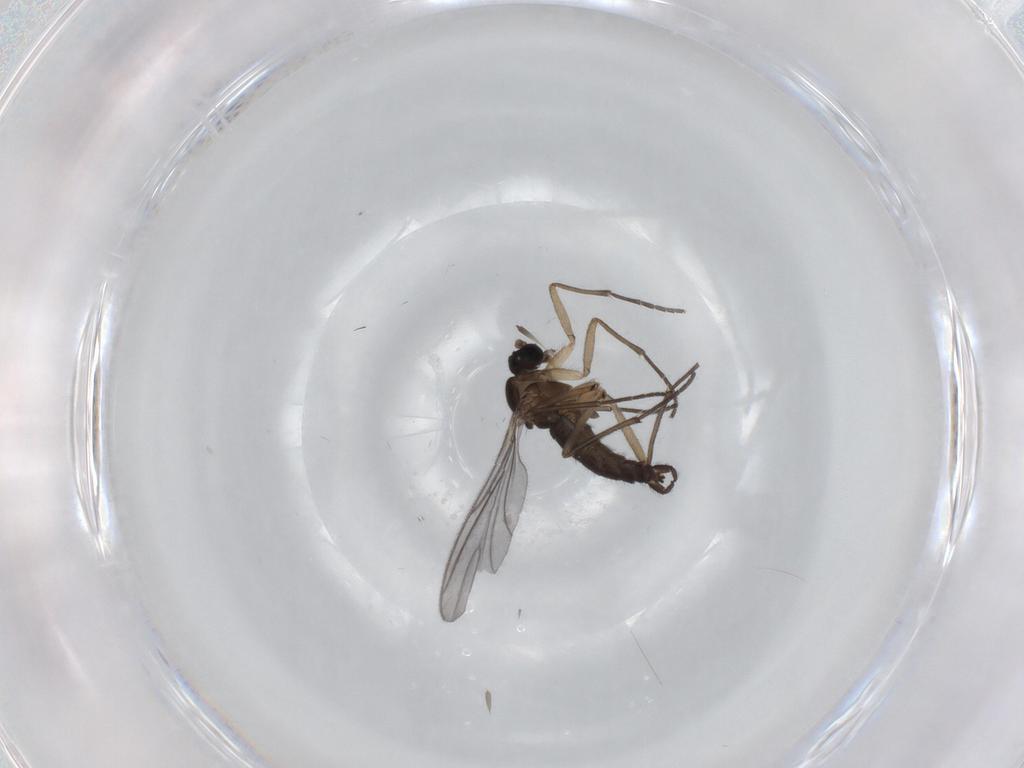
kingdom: Animalia
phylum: Arthropoda
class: Insecta
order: Diptera
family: Sciaridae
